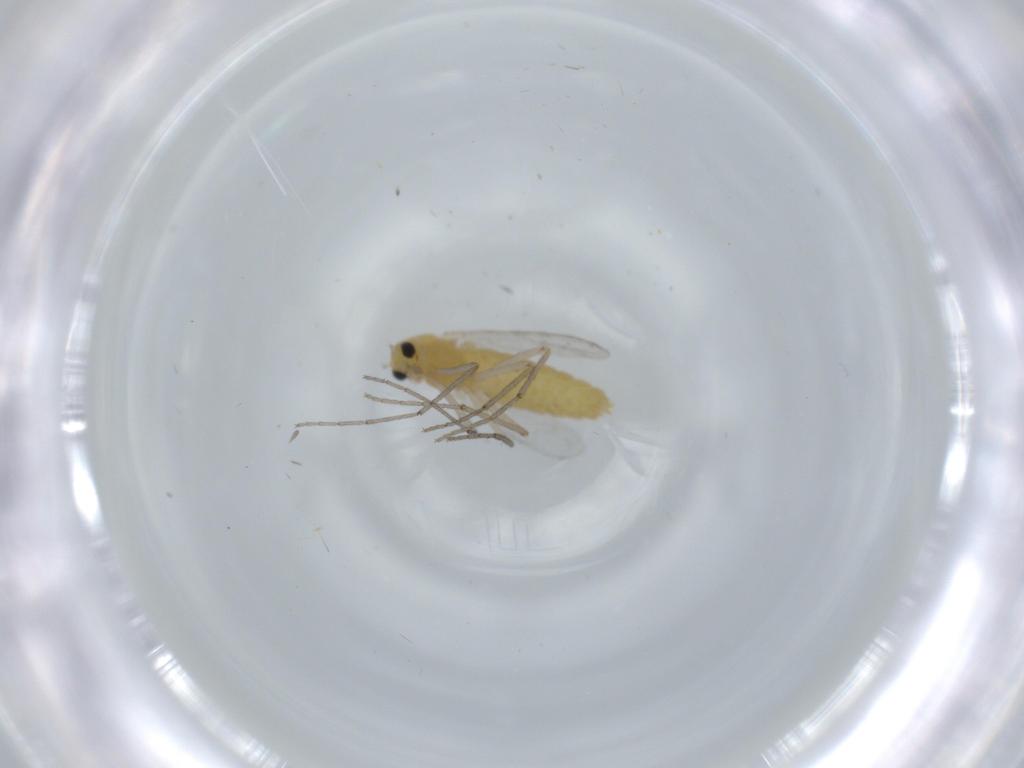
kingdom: Animalia
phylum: Arthropoda
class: Insecta
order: Diptera
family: Chironomidae
